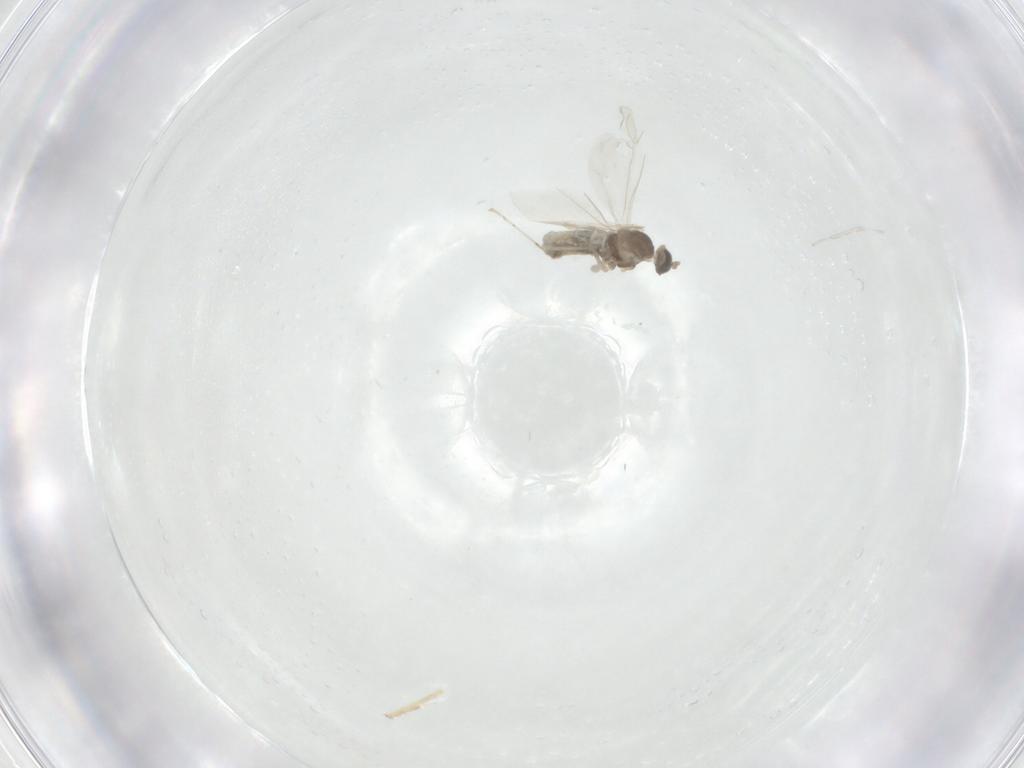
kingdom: Animalia
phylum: Arthropoda
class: Insecta
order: Diptera
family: Cecidomyiidae
